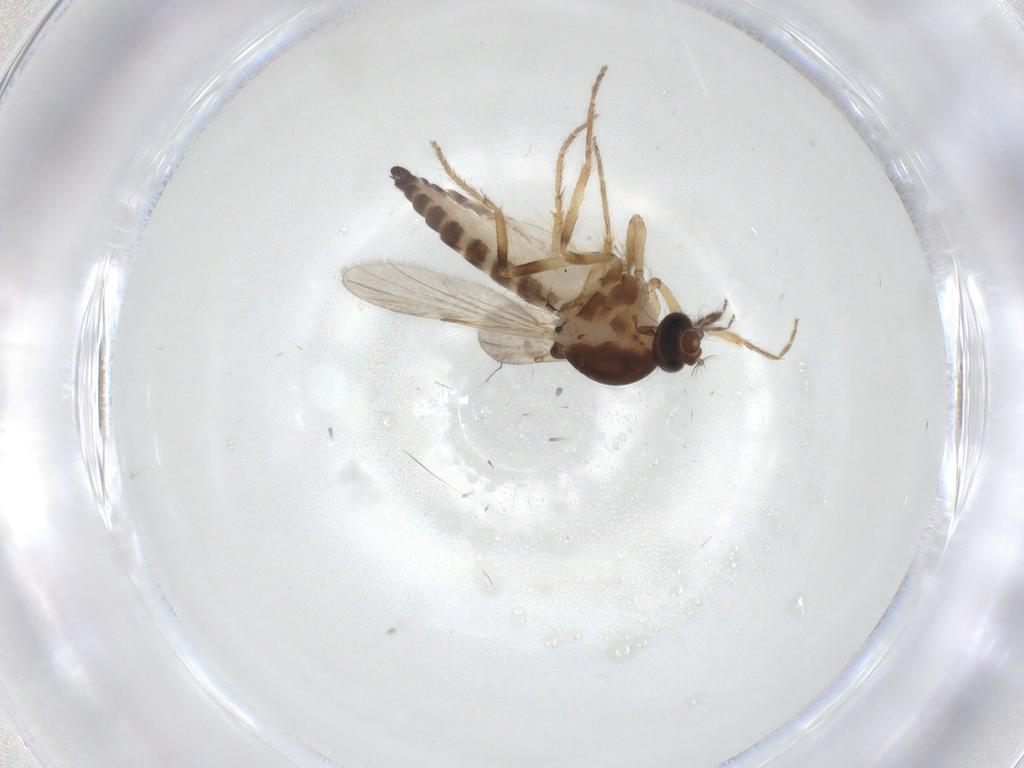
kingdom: Animalia
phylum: Arthropoda
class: Insecta
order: Diptera
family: Ceratopogonidae
